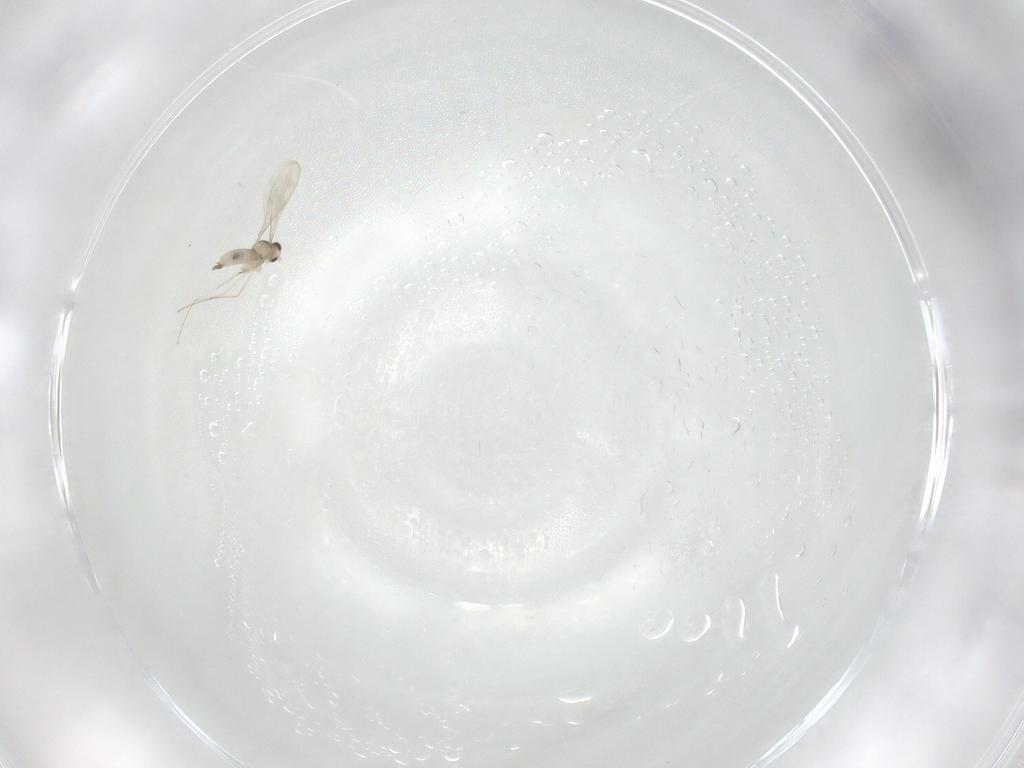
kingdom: Animalia
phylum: Arthropoda
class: Insecta
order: Diptera
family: Cecidomyiidae
